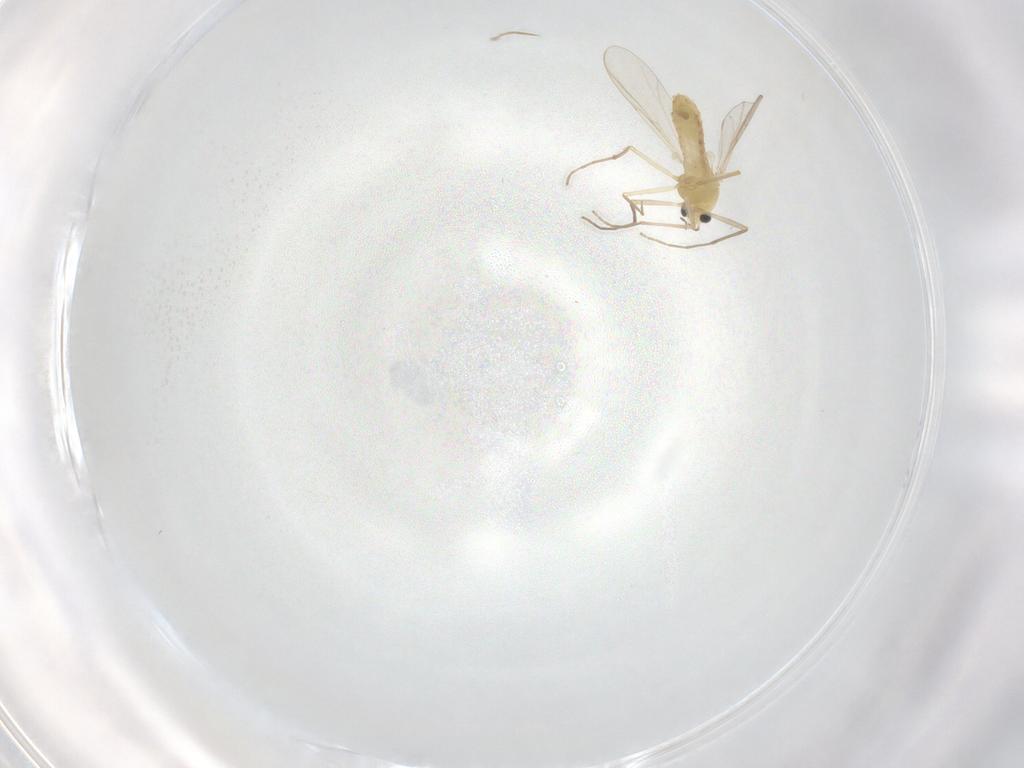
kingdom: Animalia
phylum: Arthropoda
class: Insecta
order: Diptera
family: Chironomidae
